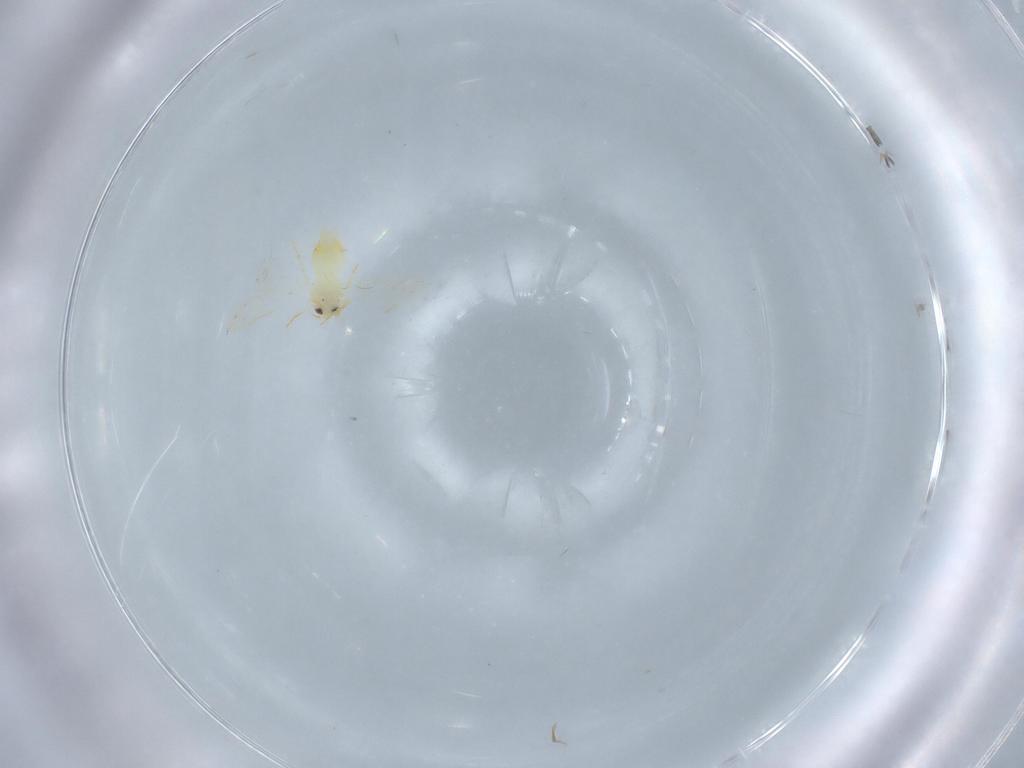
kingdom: Animalia
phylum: Arthropoda
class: Insecta
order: Hemiptera
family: Aleyrodidae
